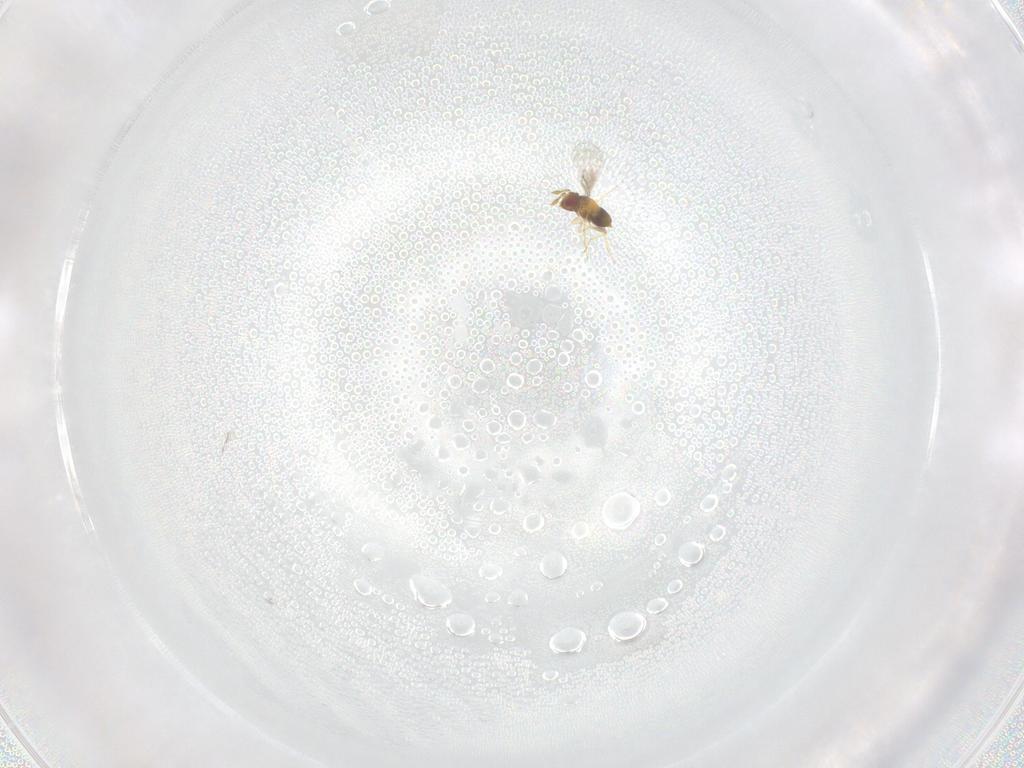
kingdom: Animalia
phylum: Arthropoda
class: Insecta
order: Hymenoptera
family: Trichogrammatidae
